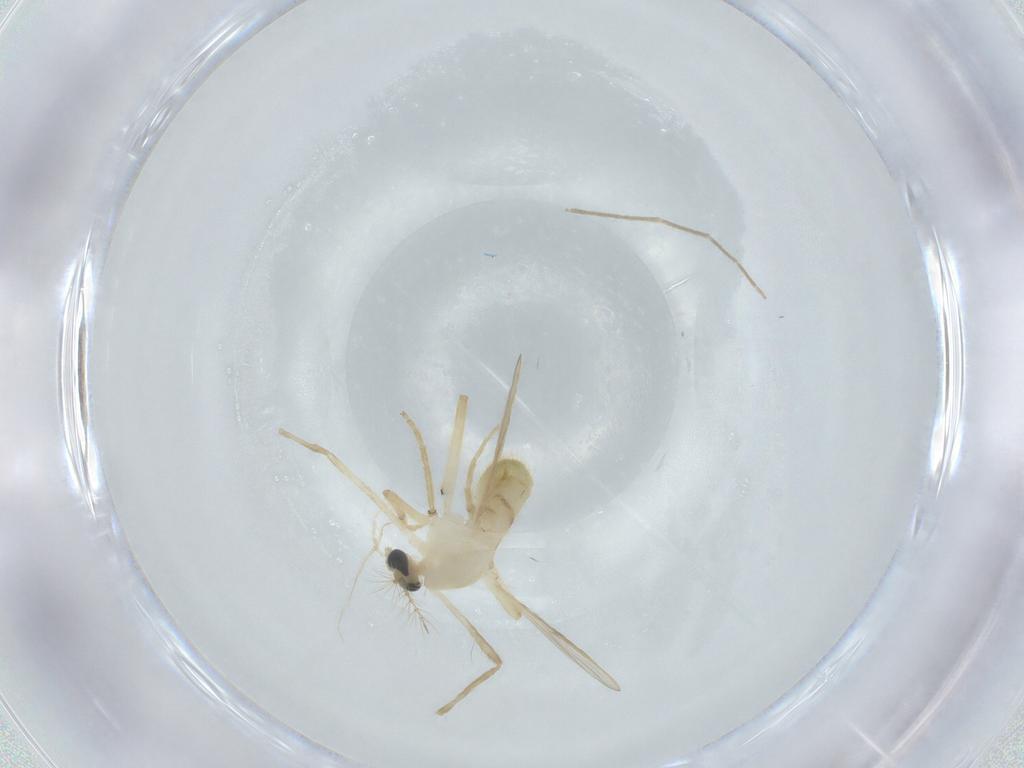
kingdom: Animalia
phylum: Arthropoda
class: Insecta
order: Diptera
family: Chironomidae
